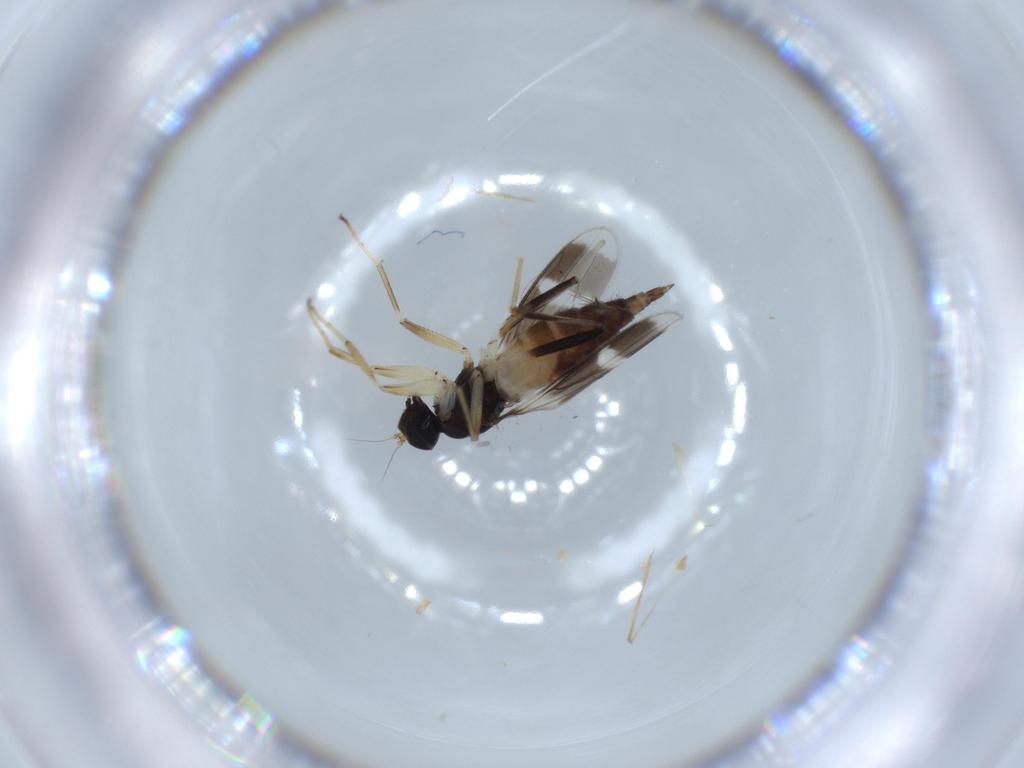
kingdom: Animalia
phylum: Arthropoda
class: Insecta
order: Diptera
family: Hybotidae
